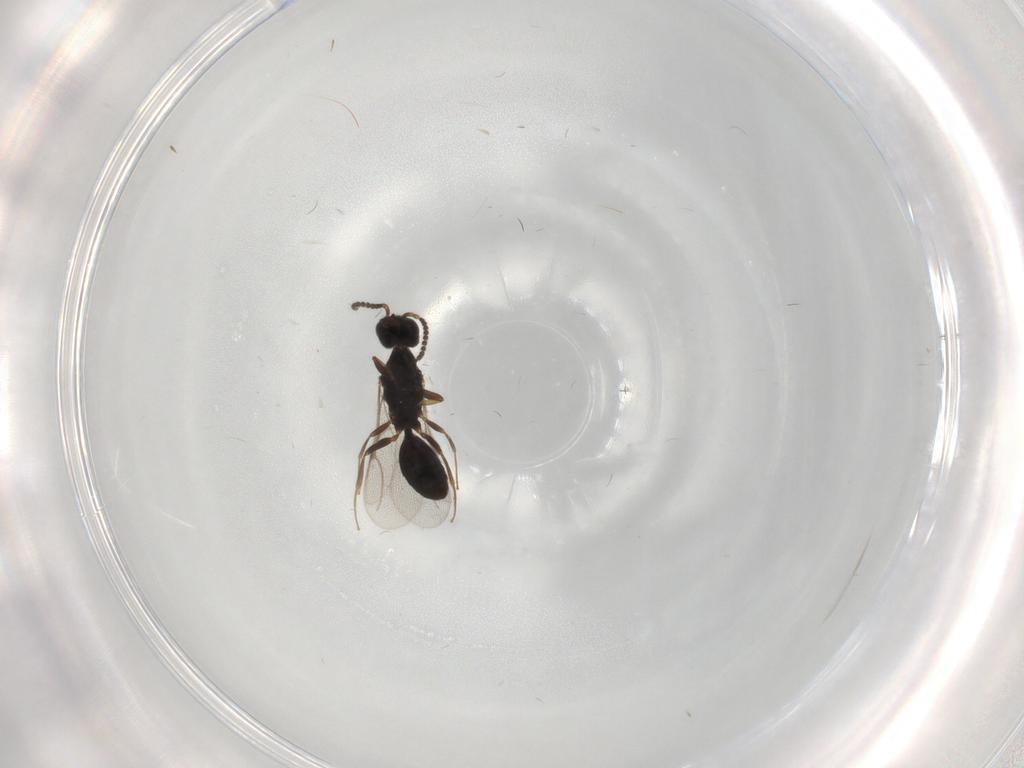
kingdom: Animalia
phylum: Arthropoda
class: Insecta
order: Hymenoptera
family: Bethylidae
